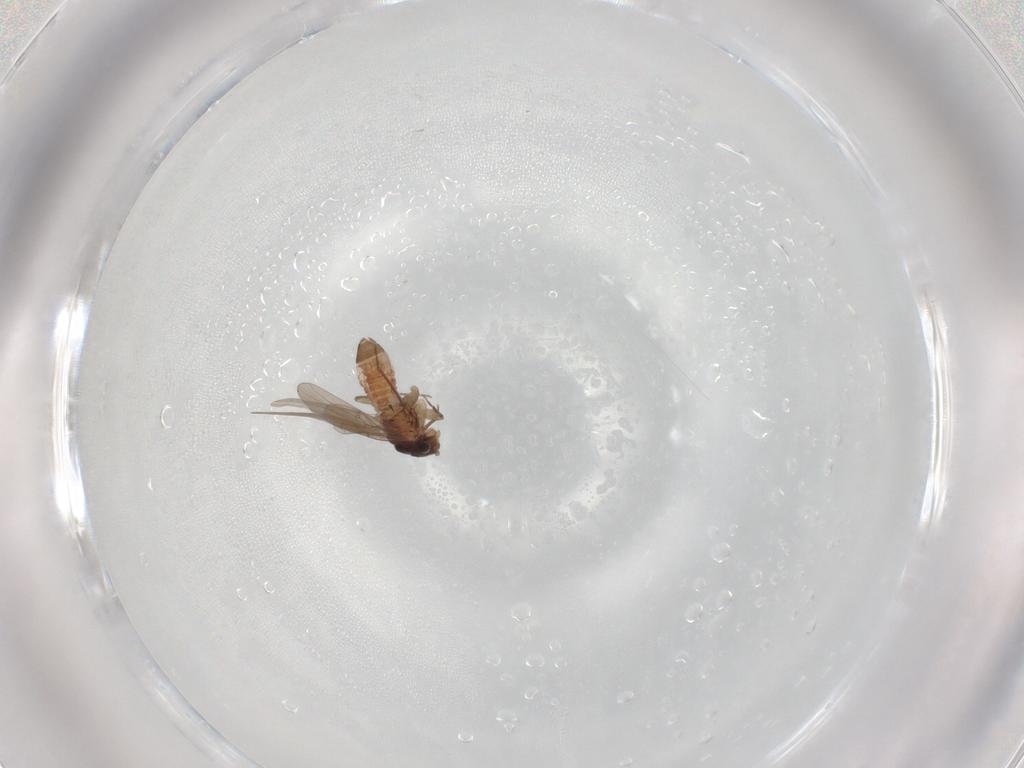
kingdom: Animalia
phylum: Arthropoda
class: Insecta
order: Psocodea
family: Lepidopsocidae
